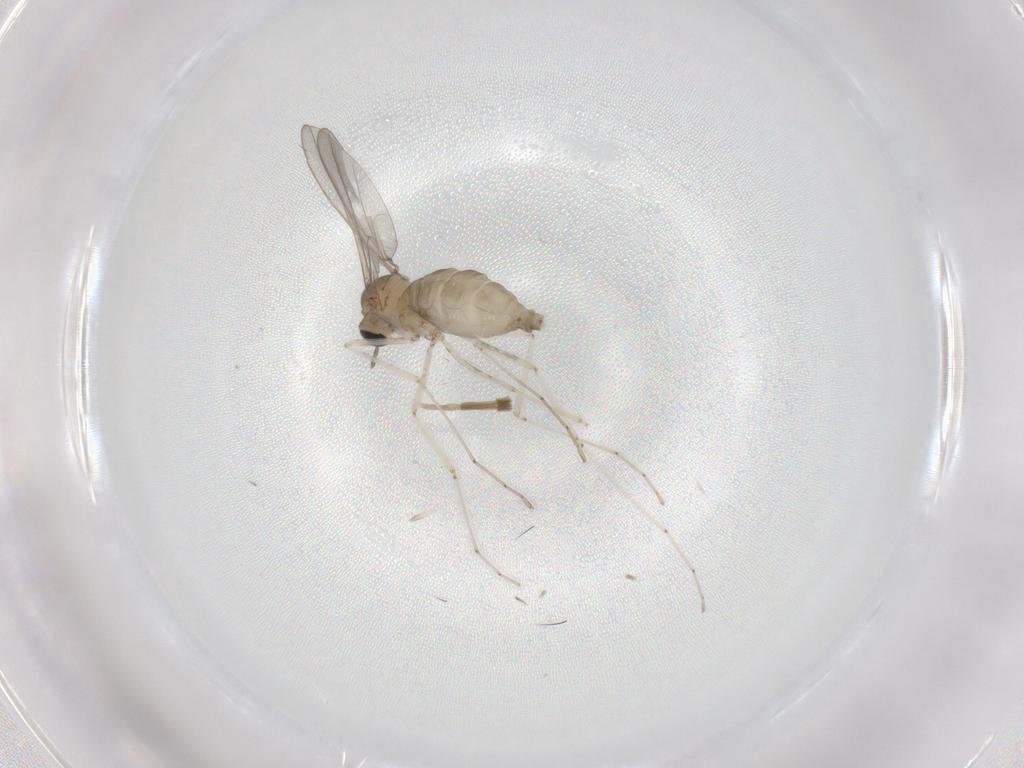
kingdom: Animalia
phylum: Arthropoda
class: Insecta
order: Diptera
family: Cecidomyiidae
